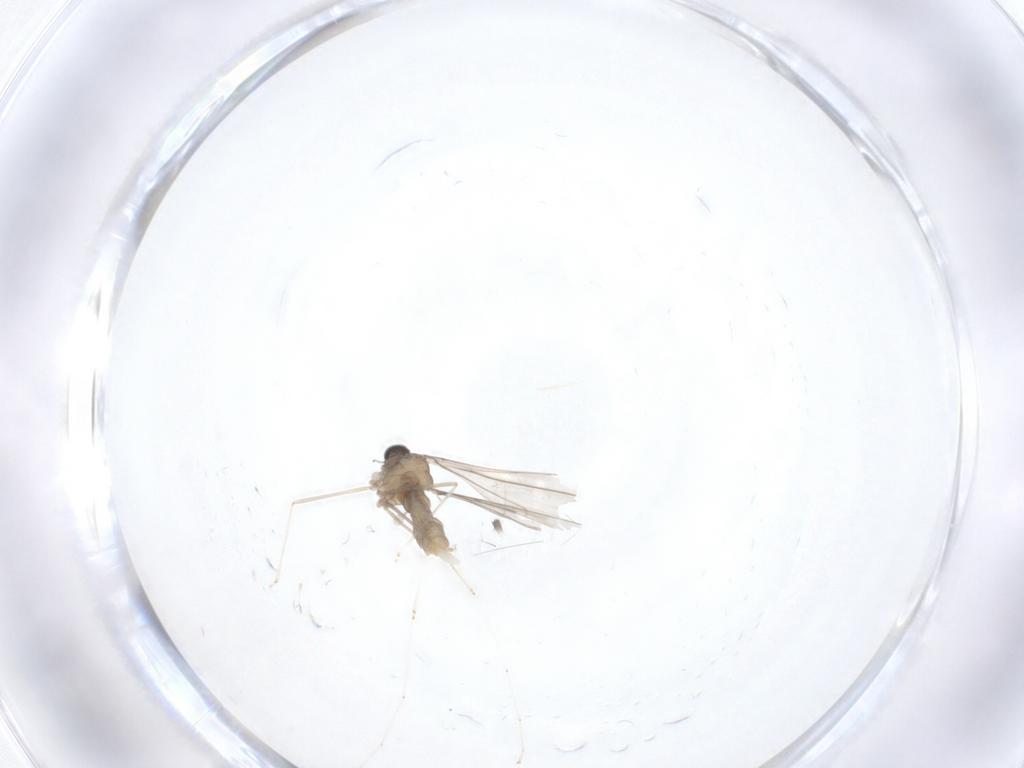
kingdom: Animalia
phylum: Arthropoda
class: Insecta
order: Diptera
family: Cecidomyiidae
